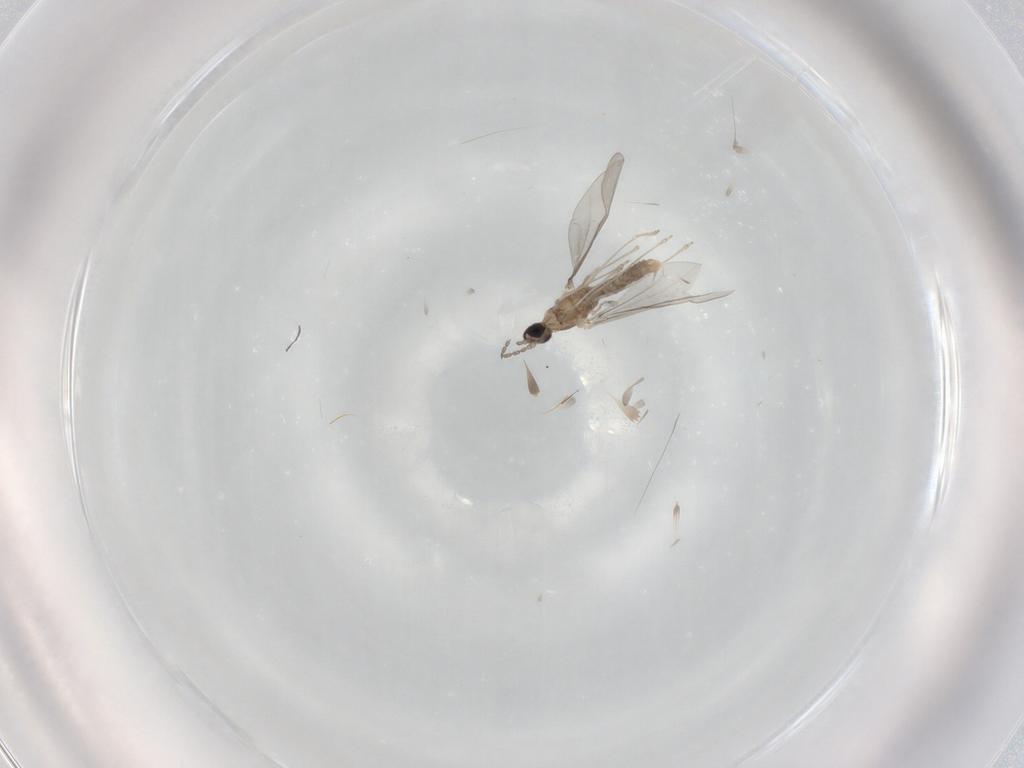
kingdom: Animalia
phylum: Arthropoda
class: Insecta
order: Diptera
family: Cecidomyiidae
